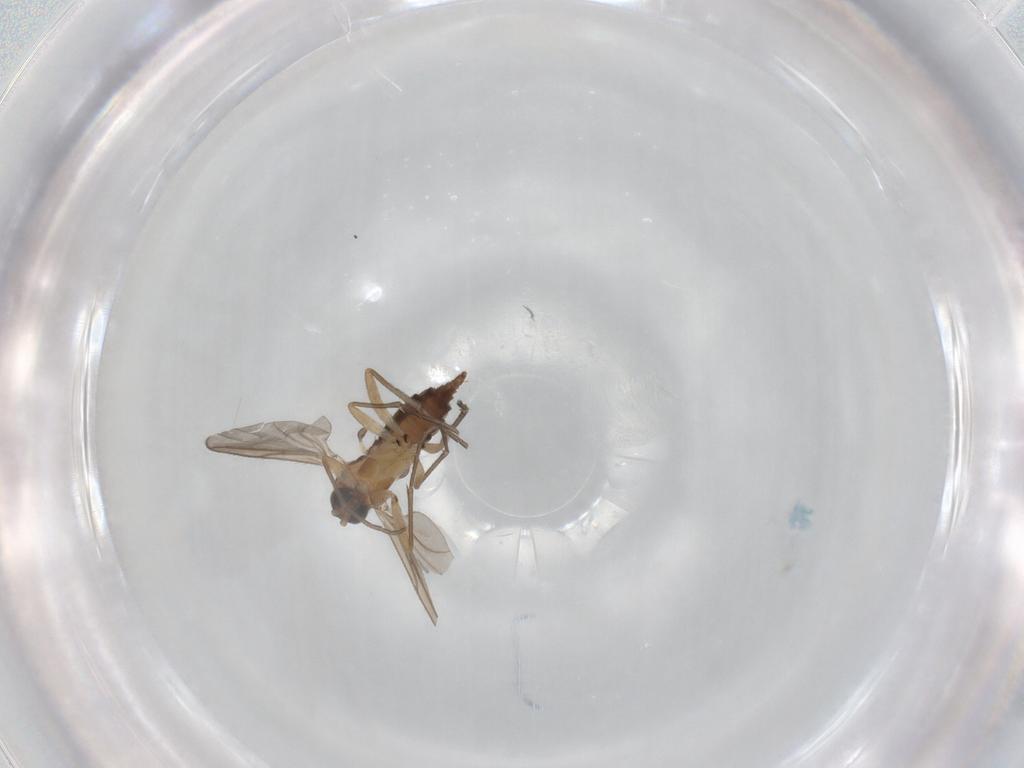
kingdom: Animalia
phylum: Arthropoda
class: Insecta
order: Diptera
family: Sciaridae
